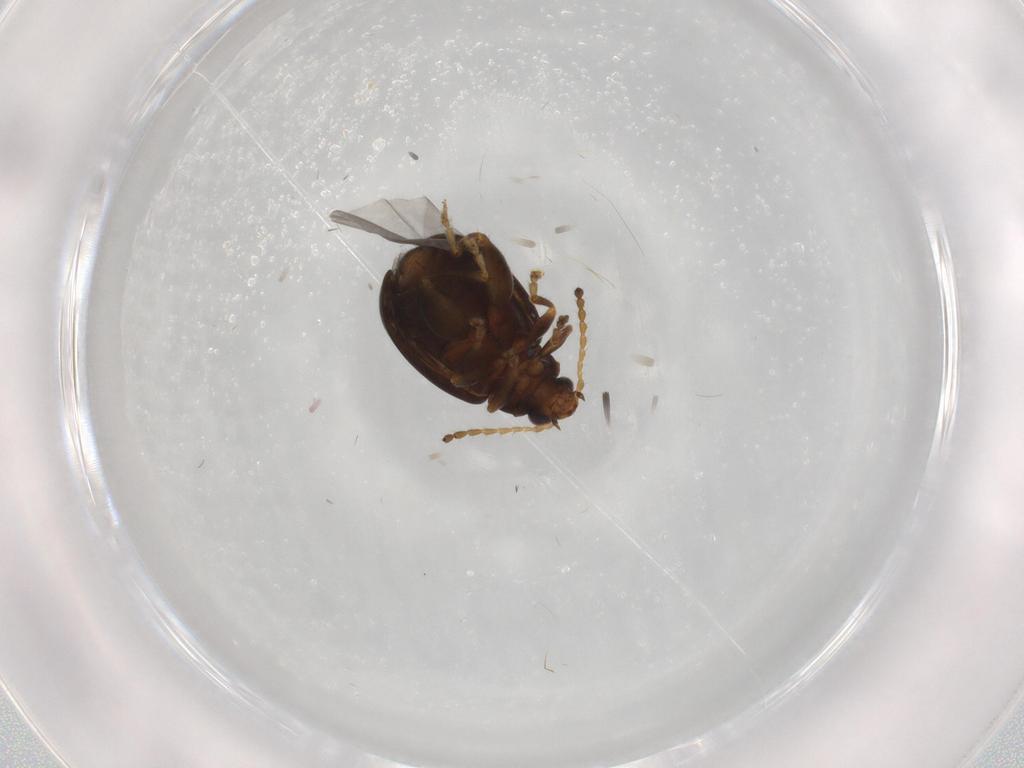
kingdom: Animalia
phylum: Arthropoda
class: Insecta
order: Coleoptera
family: Chrysomelidae
